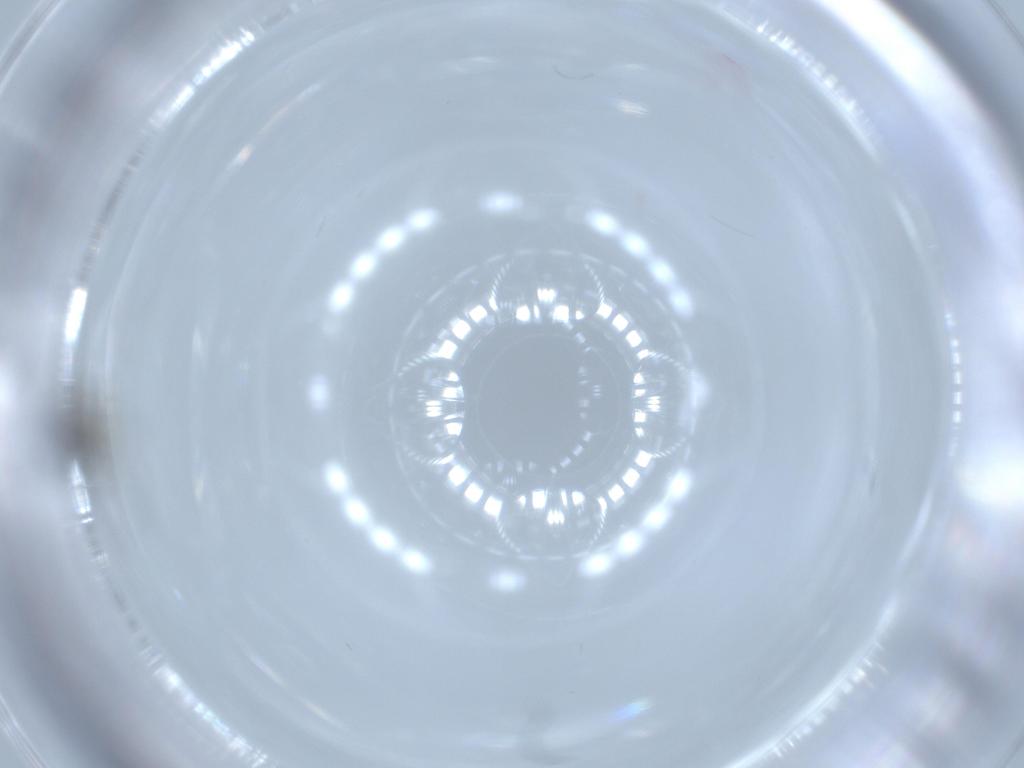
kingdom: Animalia
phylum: Arthropoda
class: Insecta
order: Hymenoptera
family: Scelionidae
